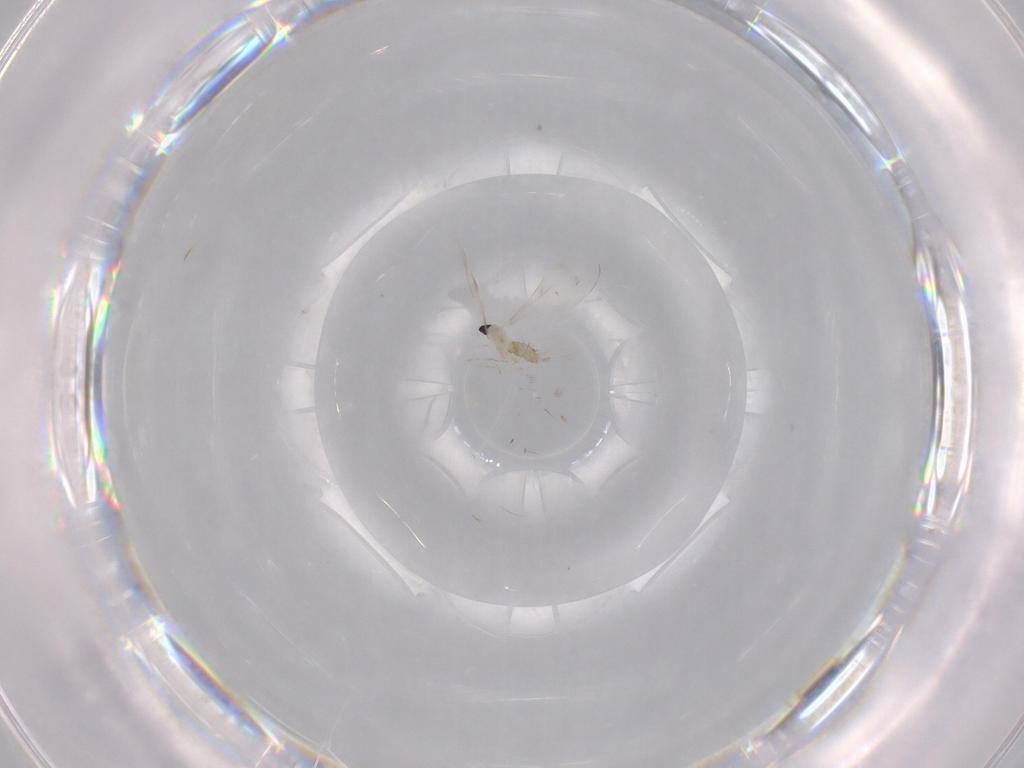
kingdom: Animalia
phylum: Arthropoda
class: Insecta
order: Diptera
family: Cecidomyiidae
